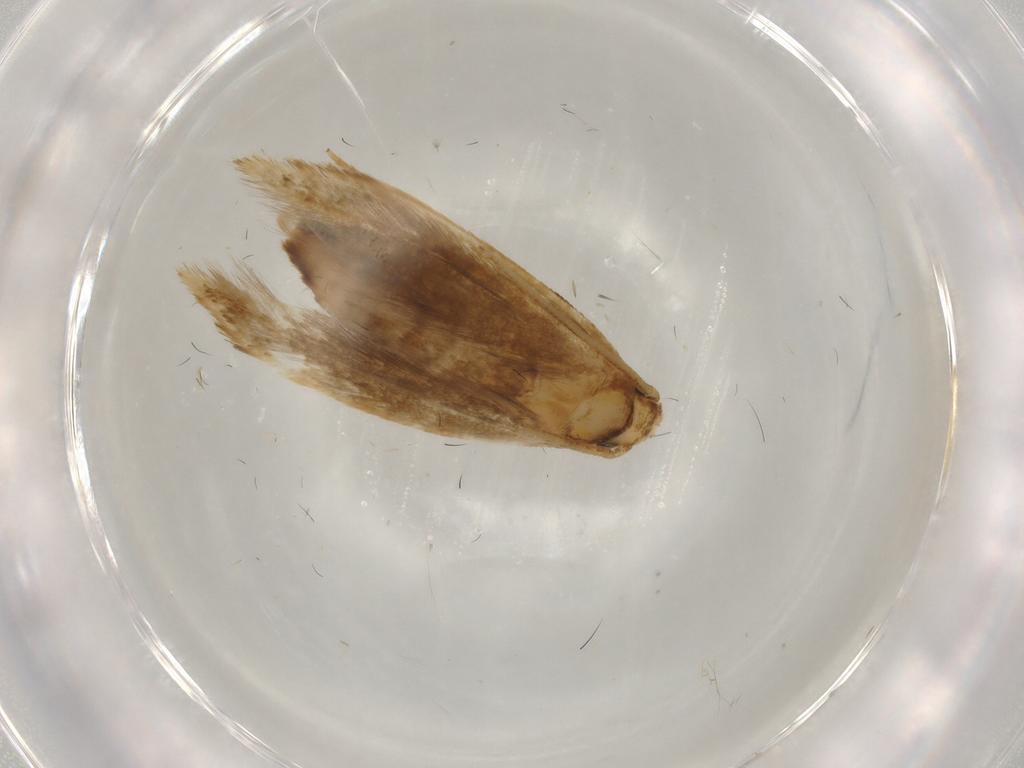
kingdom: Animalia
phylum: Arthropoda
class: Insecta
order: Lepidoptera
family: Tineidae
